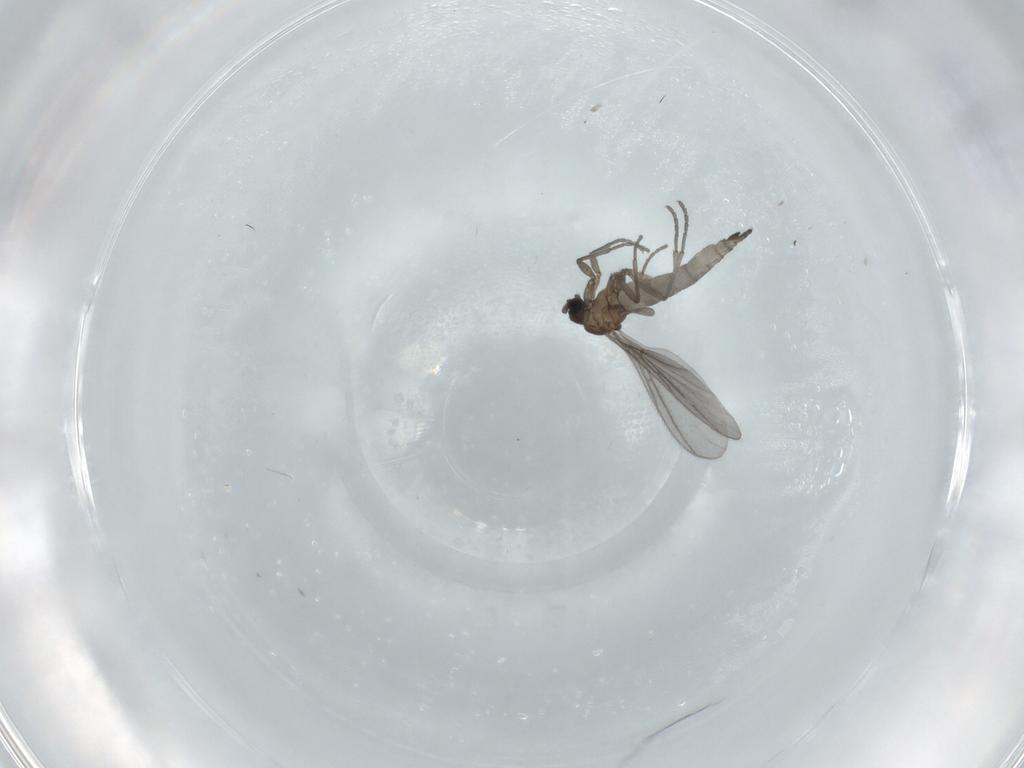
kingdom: Animalia
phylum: Arthropoda
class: Insecta
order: Diptera
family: Sciaridae
